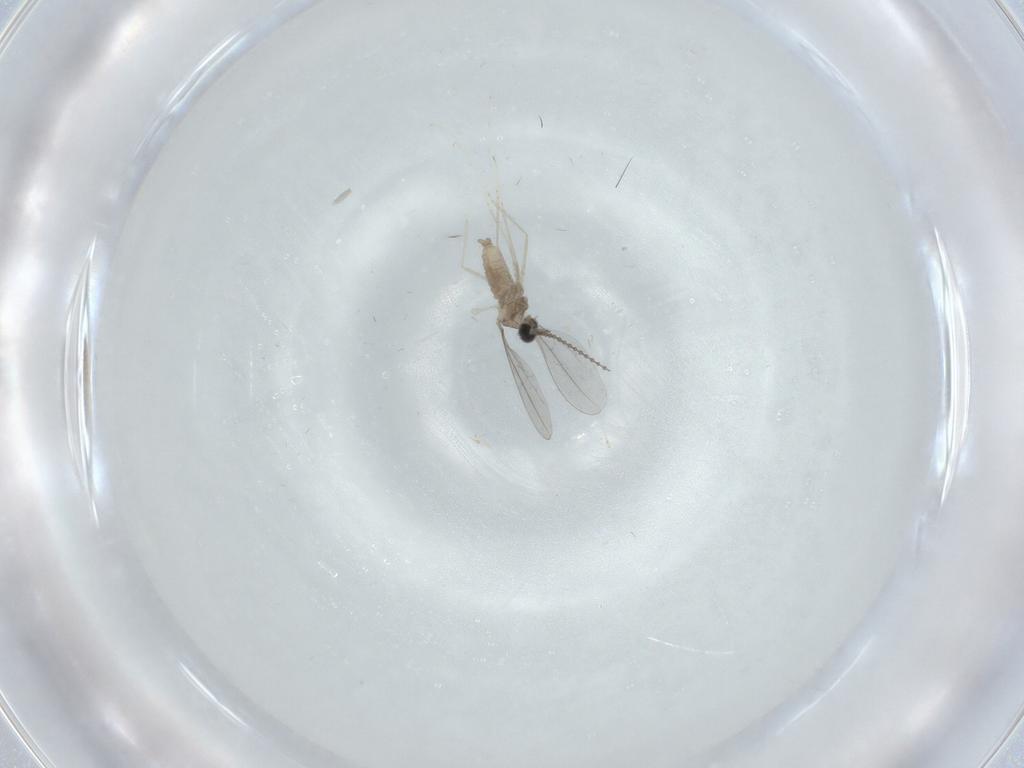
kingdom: Animalia
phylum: Arthropoda
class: Insecta
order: Diptera
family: Cecidomyiidae
